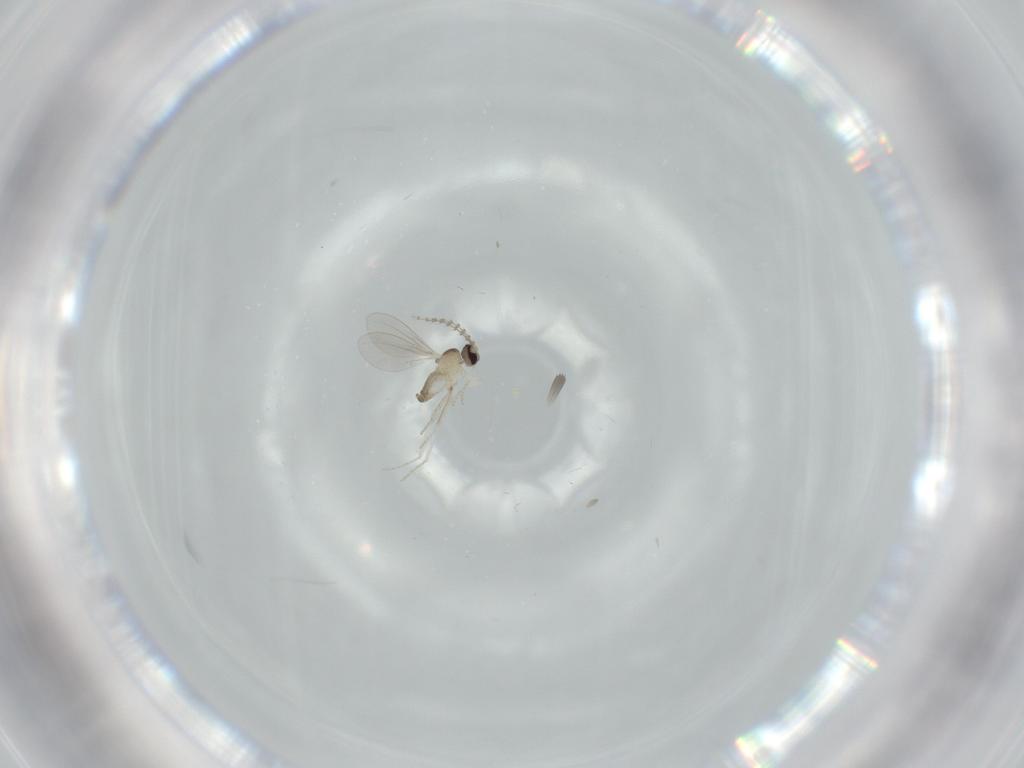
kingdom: Animalia
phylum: Arthropoda
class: Insecta
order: Diptera
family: Cecidomyiidae
